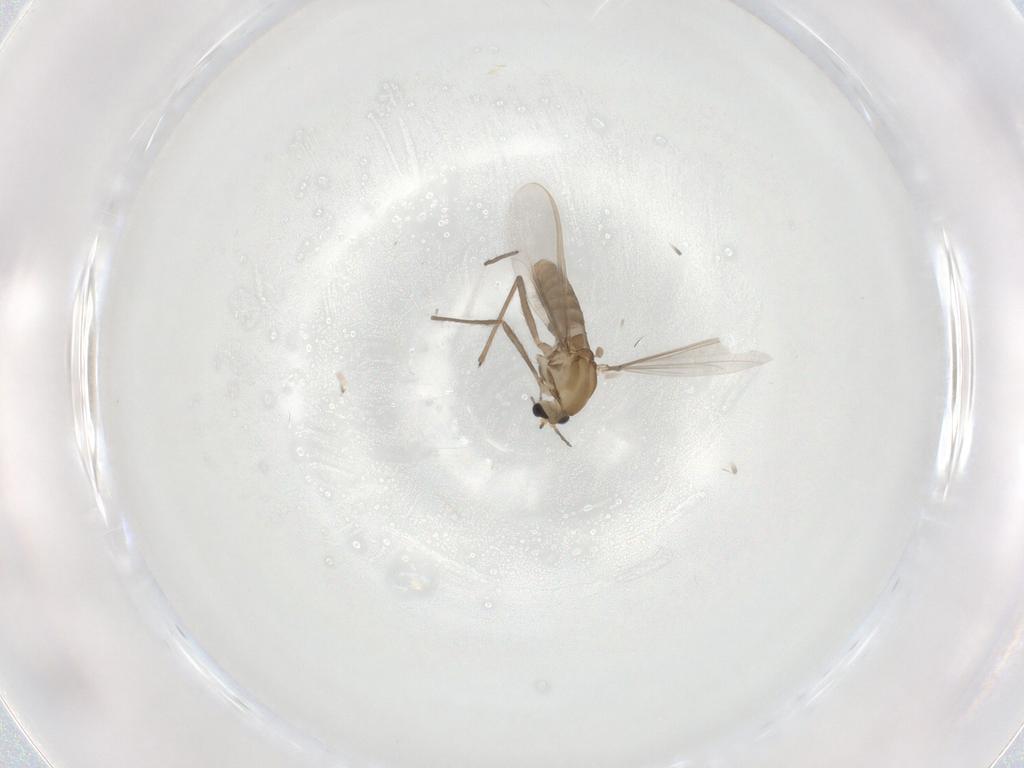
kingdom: Animalia
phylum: Arthropoda
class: Insecta
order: Diptera
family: Chironomidae
